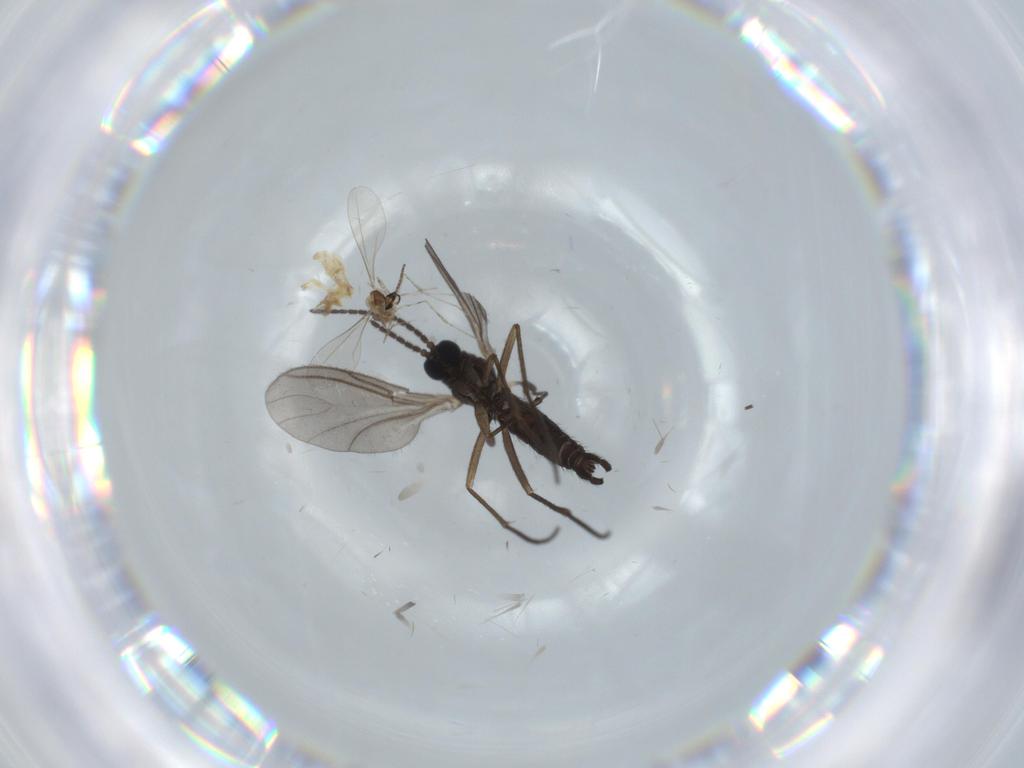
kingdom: Animalia
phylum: Arthropoda
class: Insecta
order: Diptera
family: Sciaridae
